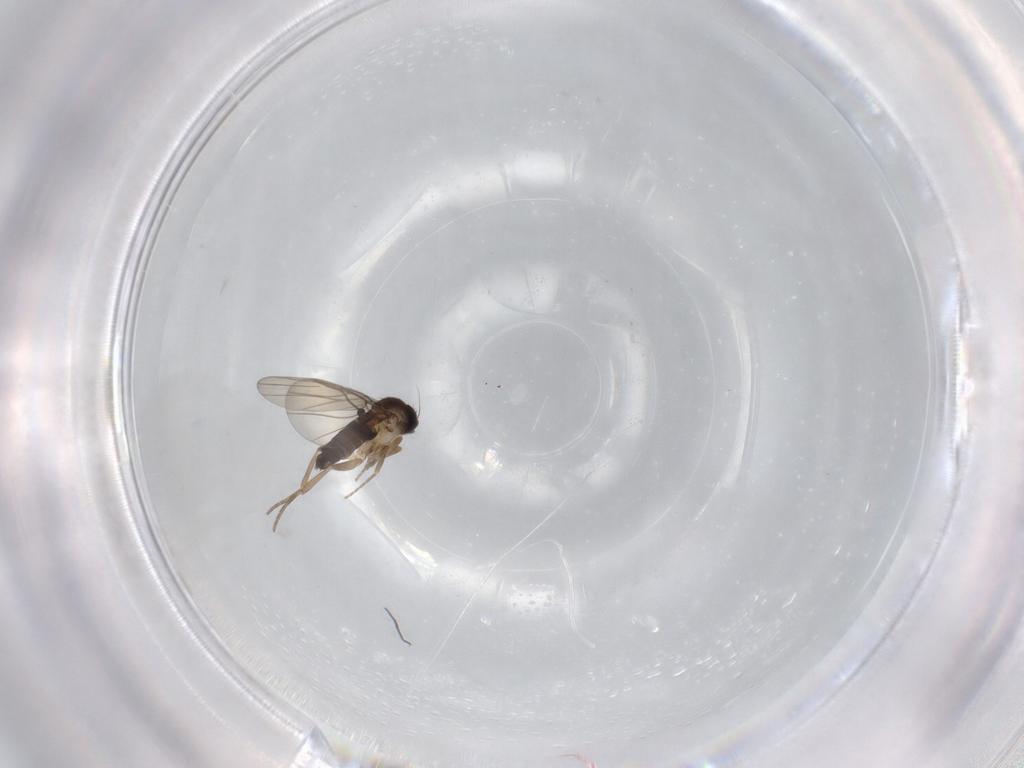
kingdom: Animalia
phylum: Arthropoda
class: Insecta
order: Diptera
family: Phoridae
